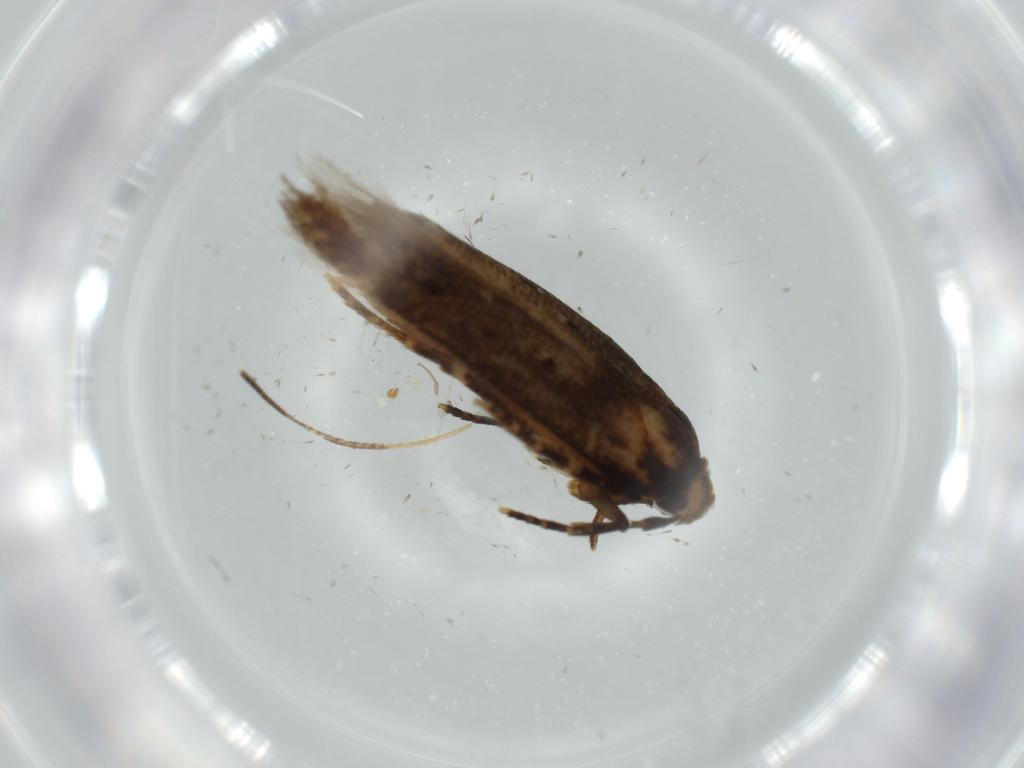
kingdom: Animalia
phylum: Arthropoda
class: Insecta
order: Lepidoptera
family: Cosmopterigidae
